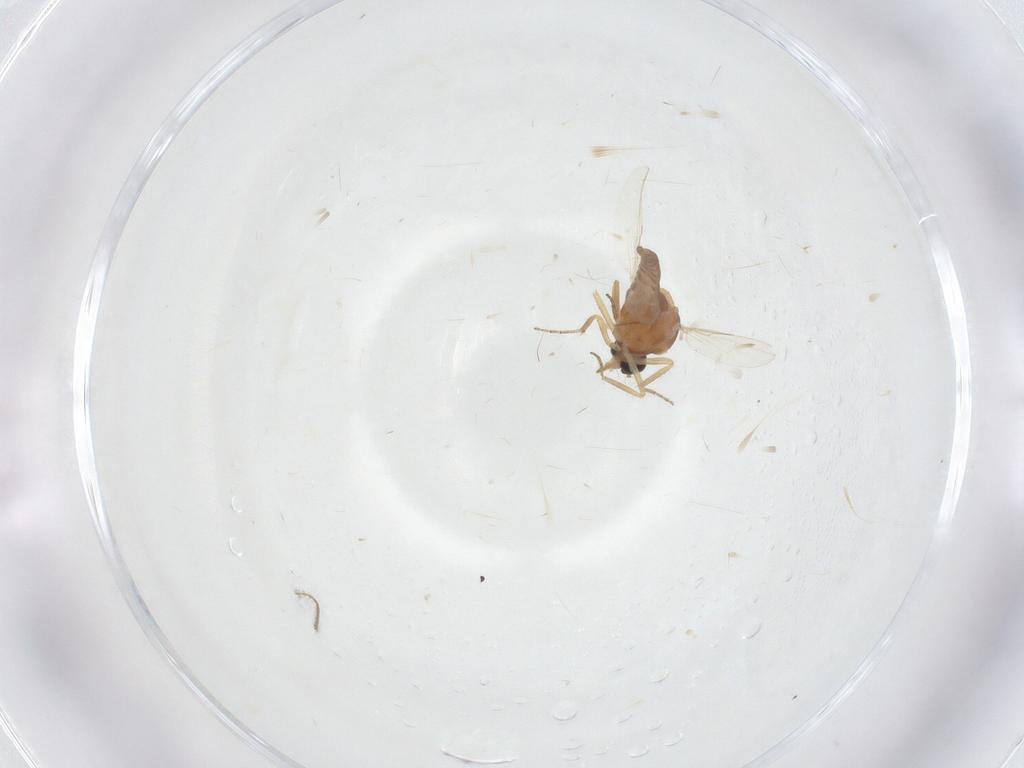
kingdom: Animalia
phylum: Arthropoda
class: Insecta
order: Diptera
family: Ceratopogonidae
